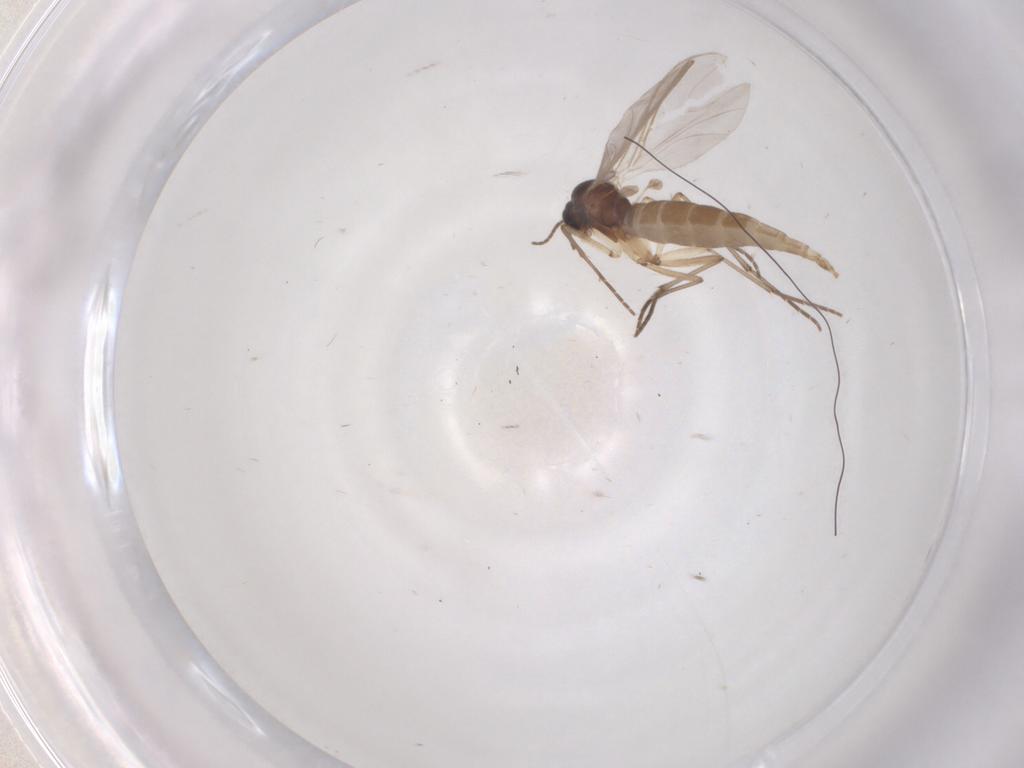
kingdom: Animalia
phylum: Arthropoda
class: Insecta
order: Diptera
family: Sciaridae
